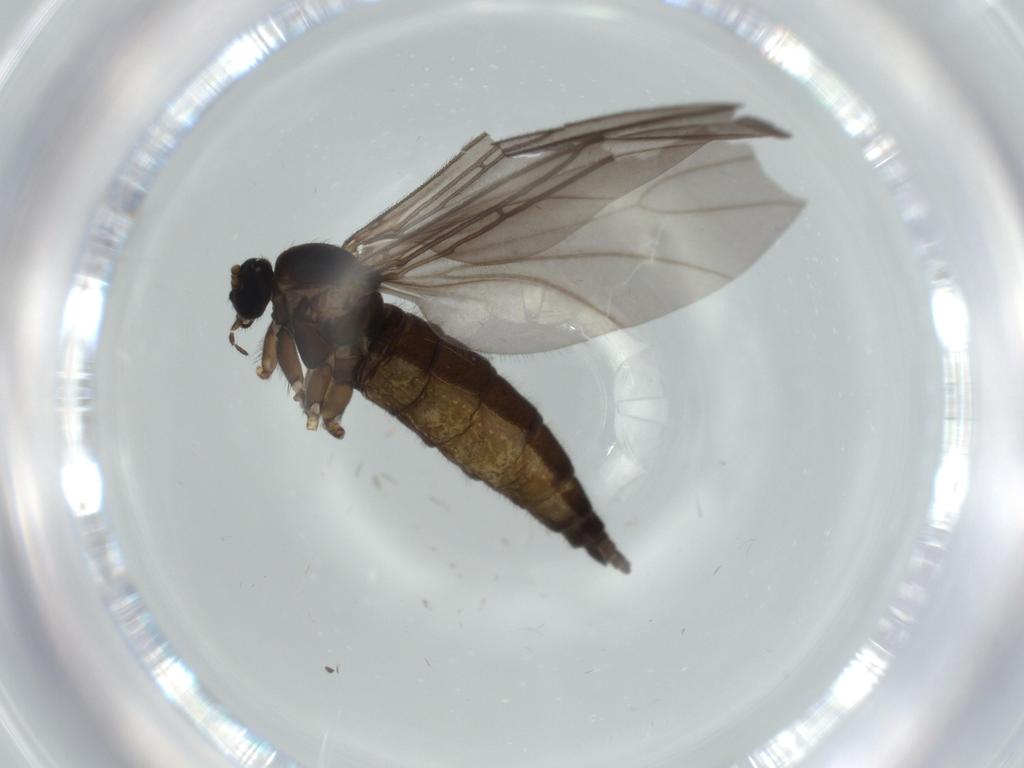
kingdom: Animalia
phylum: Arthropoda
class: Insecta
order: Diptera
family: Sciaridae
